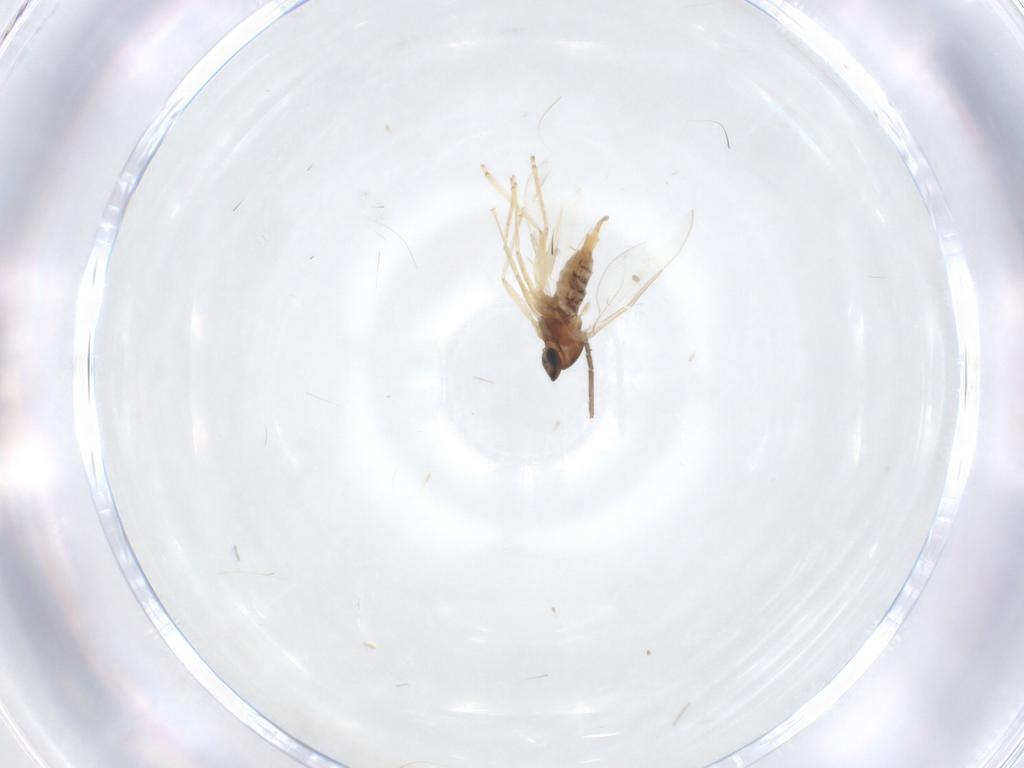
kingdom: Animalia
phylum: Arthropoda
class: Insecta
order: Diptera
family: Cecidomyiidae
